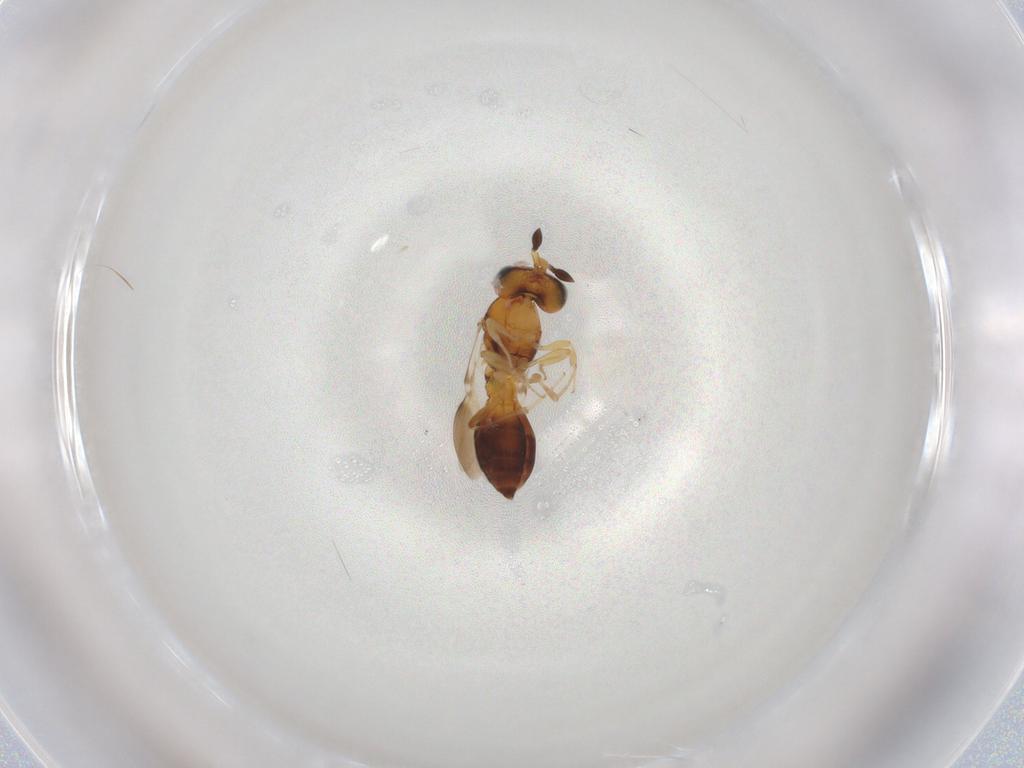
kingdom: Animalia
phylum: Arthropoda
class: Insecta
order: Hymenoptera
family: Scelionidae
